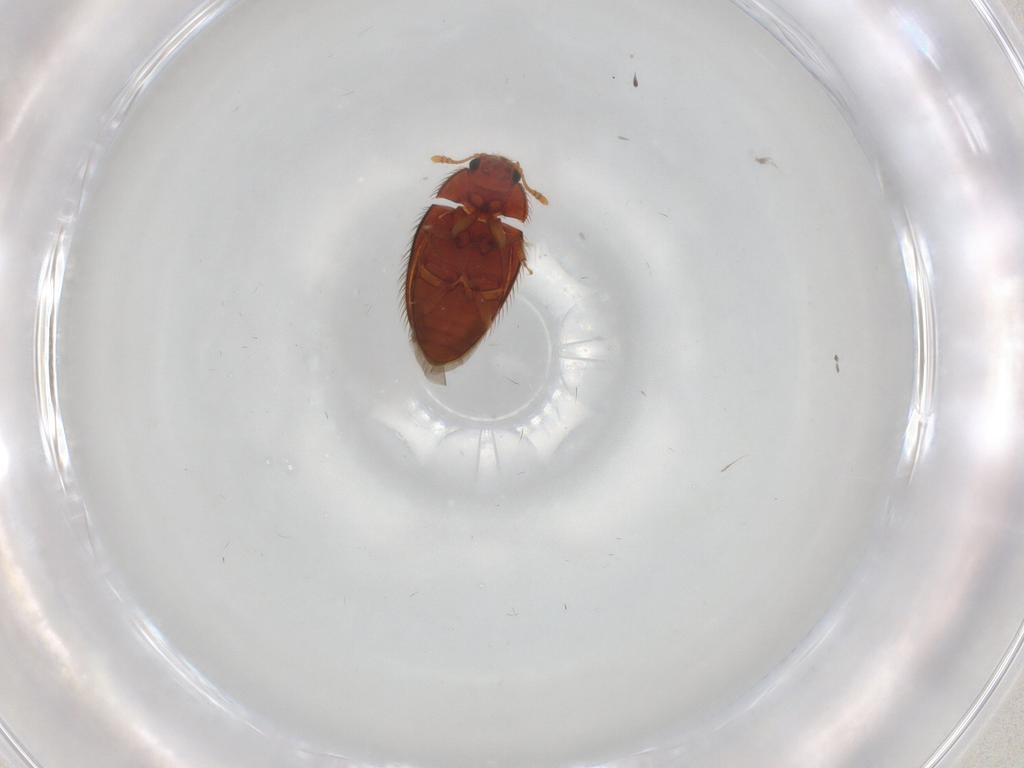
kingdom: Animalia
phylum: Arthropoda
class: Insecta
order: Coleoptera
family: Biphyllidae
